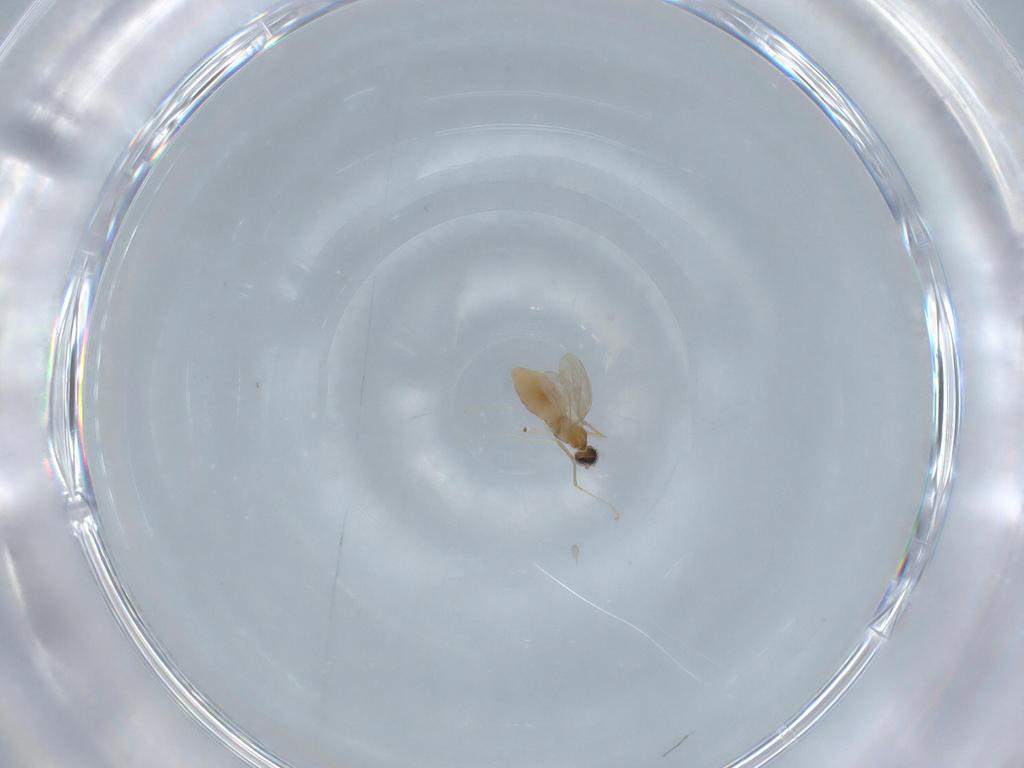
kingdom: Animalia
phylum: Arthropoda
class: Insecta
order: Diptera
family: Cecidomyiidae
